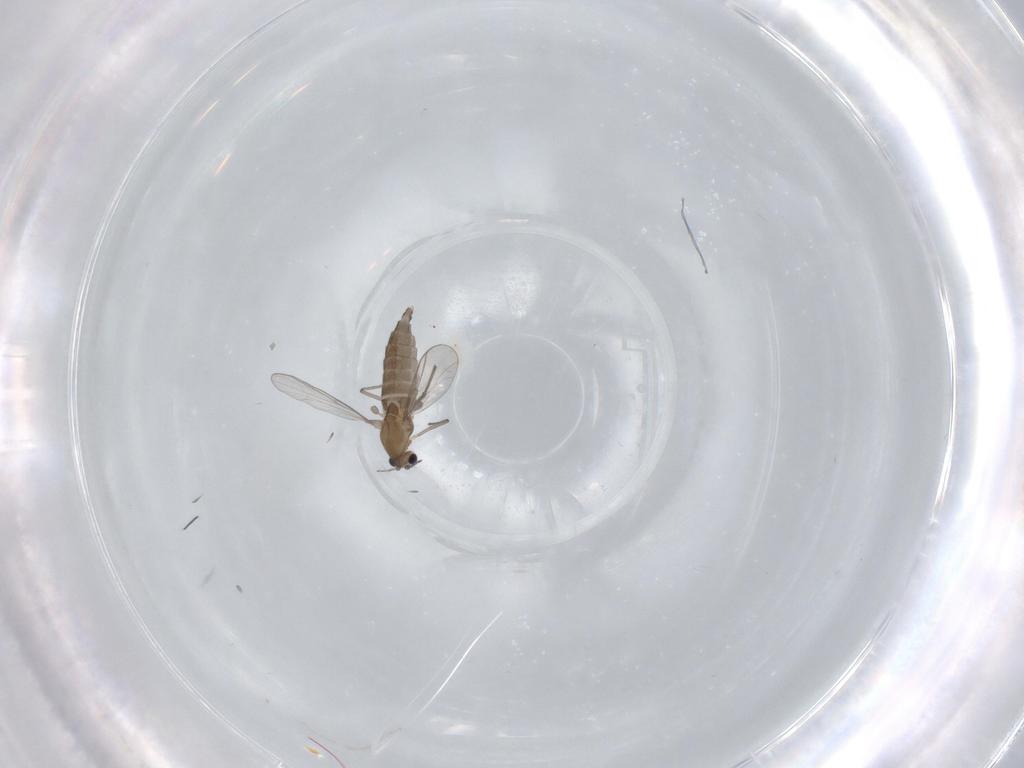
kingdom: Animalia
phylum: Arthropoda
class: Insecta
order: Diptera
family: Chironomidae
